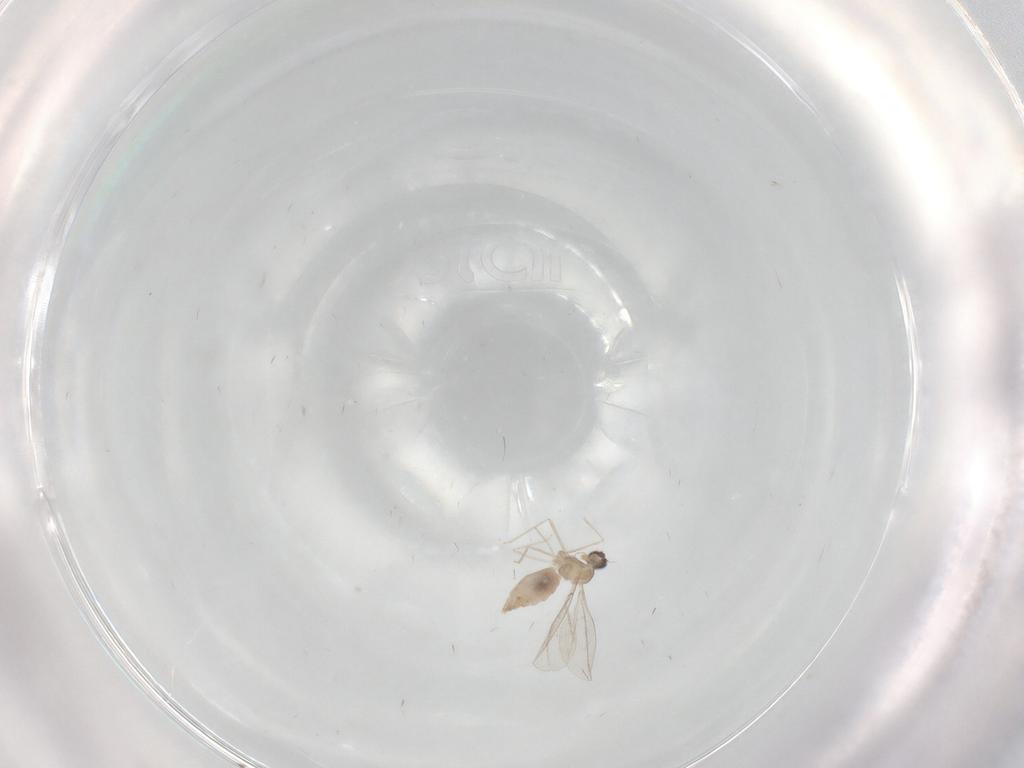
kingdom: Animalia
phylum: Arthropoda
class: Insecta
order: Diptera
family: Cecidomyiidae
